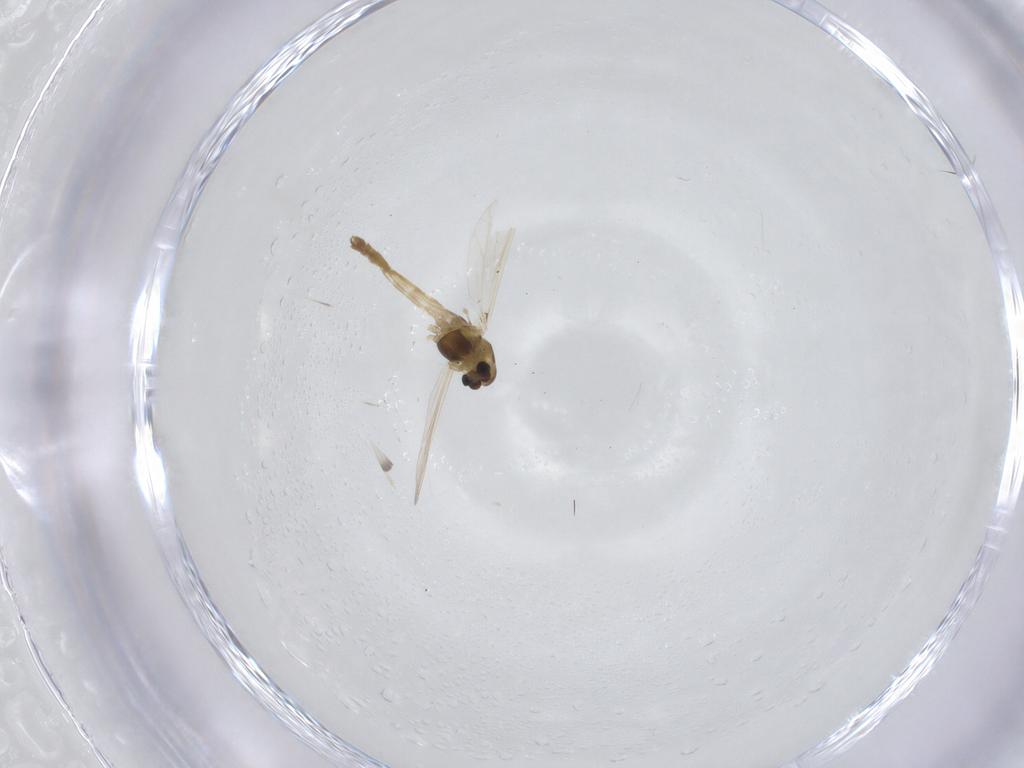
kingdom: Animalia
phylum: Arthropoda
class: Insecta
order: Diptera
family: Chironomidae
